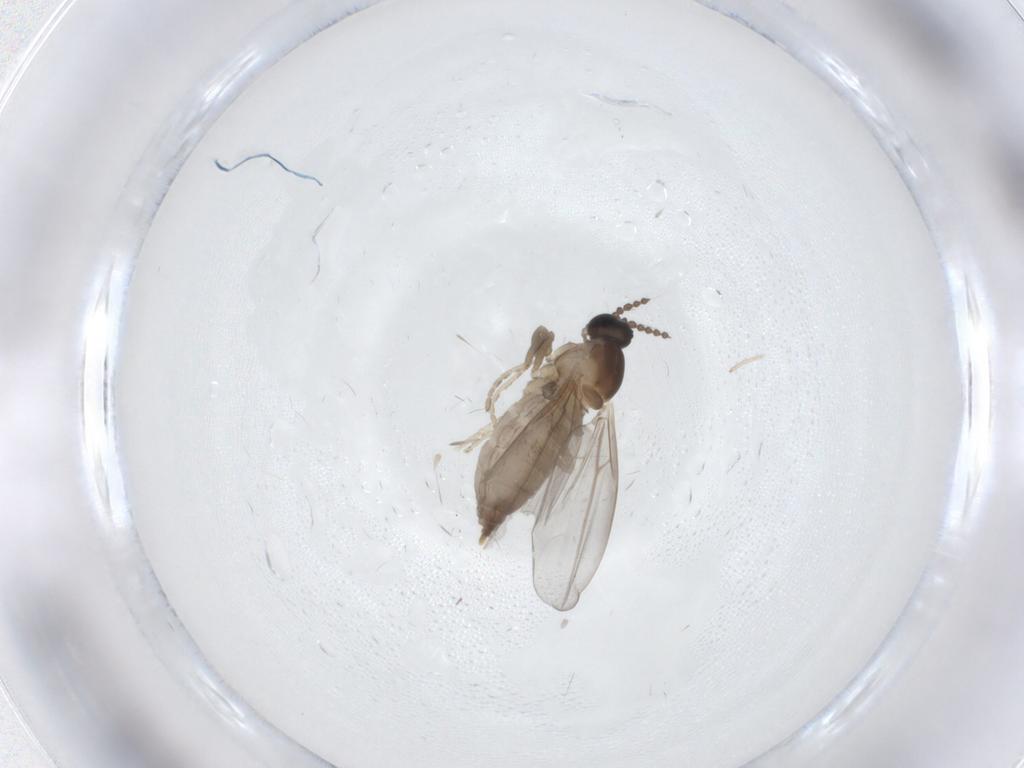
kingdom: Animalia
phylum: Arthropoda
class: Insecta
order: Diptera
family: Cecidomyiidae
